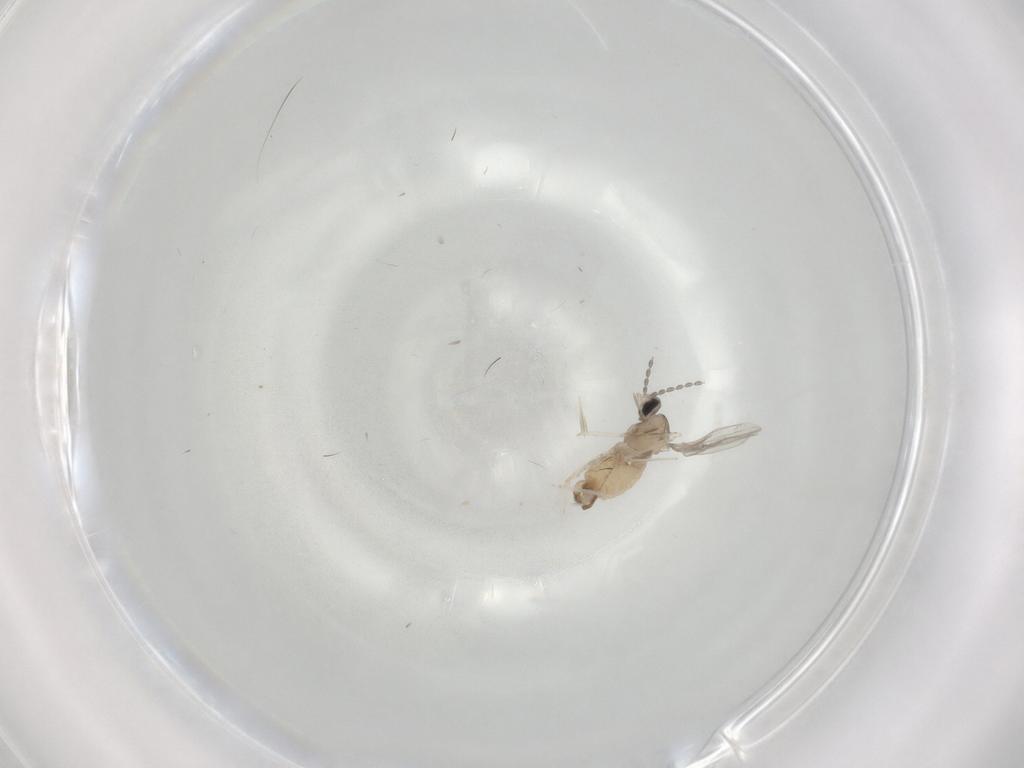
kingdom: Animalia
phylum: Arthropoda
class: Insecta
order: Diptera
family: Cecidomyiidae
